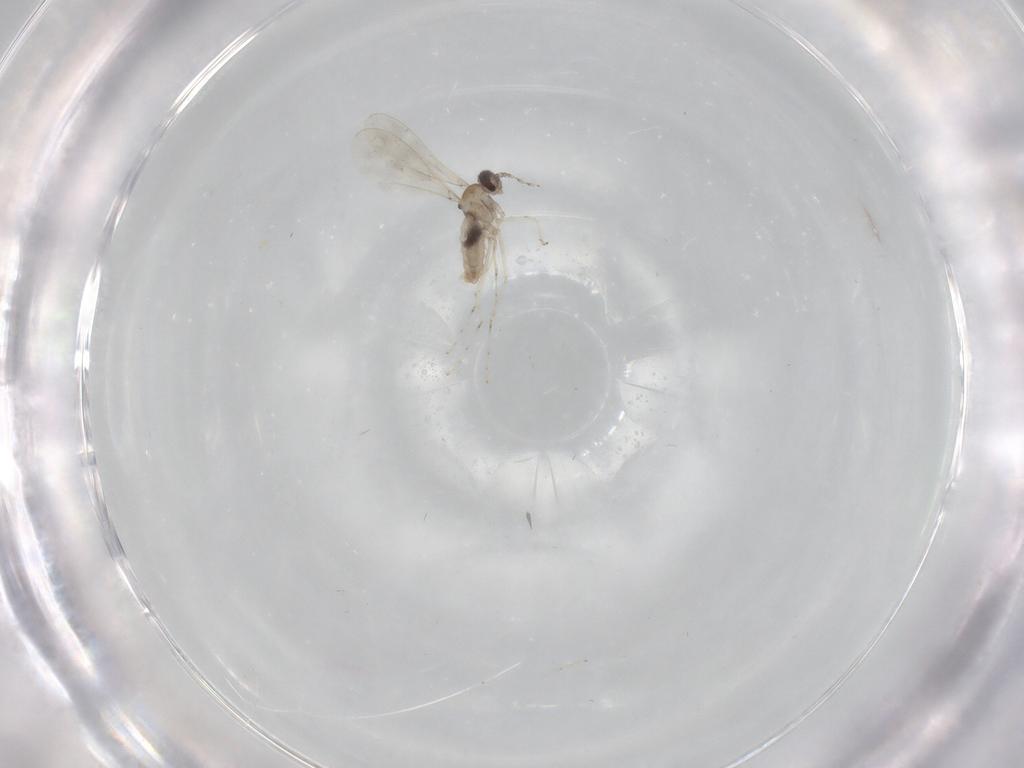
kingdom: Animalia
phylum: Arthropoda
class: Insecta
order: Diptera
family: Cecidomyiidae
